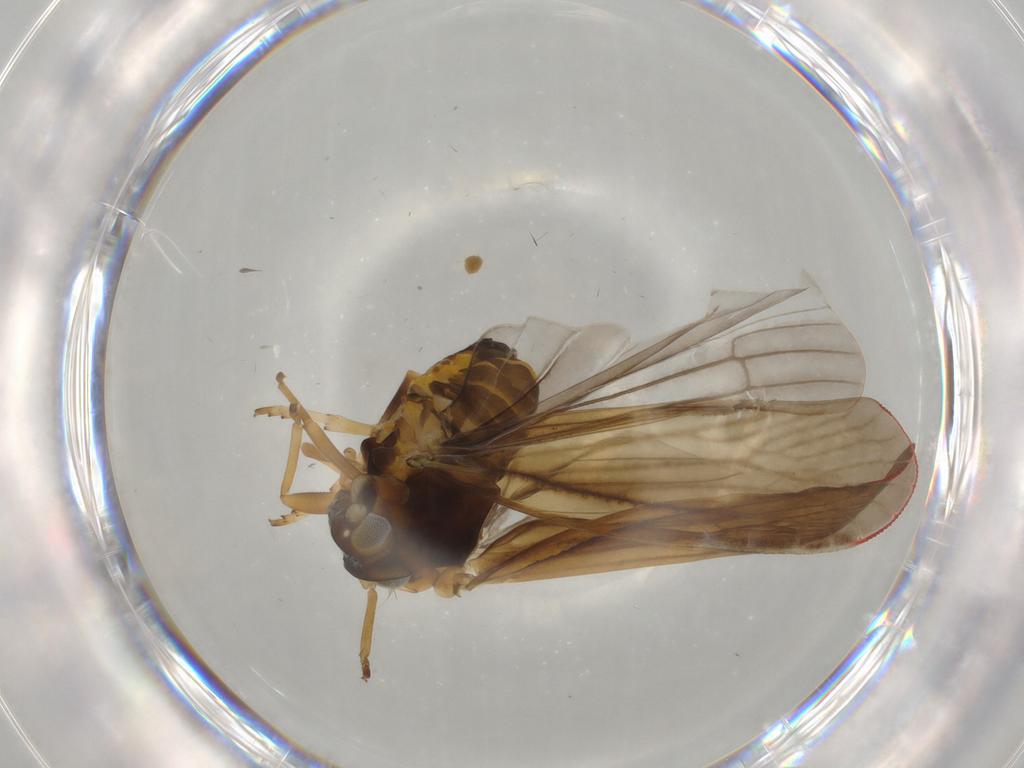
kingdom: Animalia
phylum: Arthropoda
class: Insecta
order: Hemiptera
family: Derbidae
